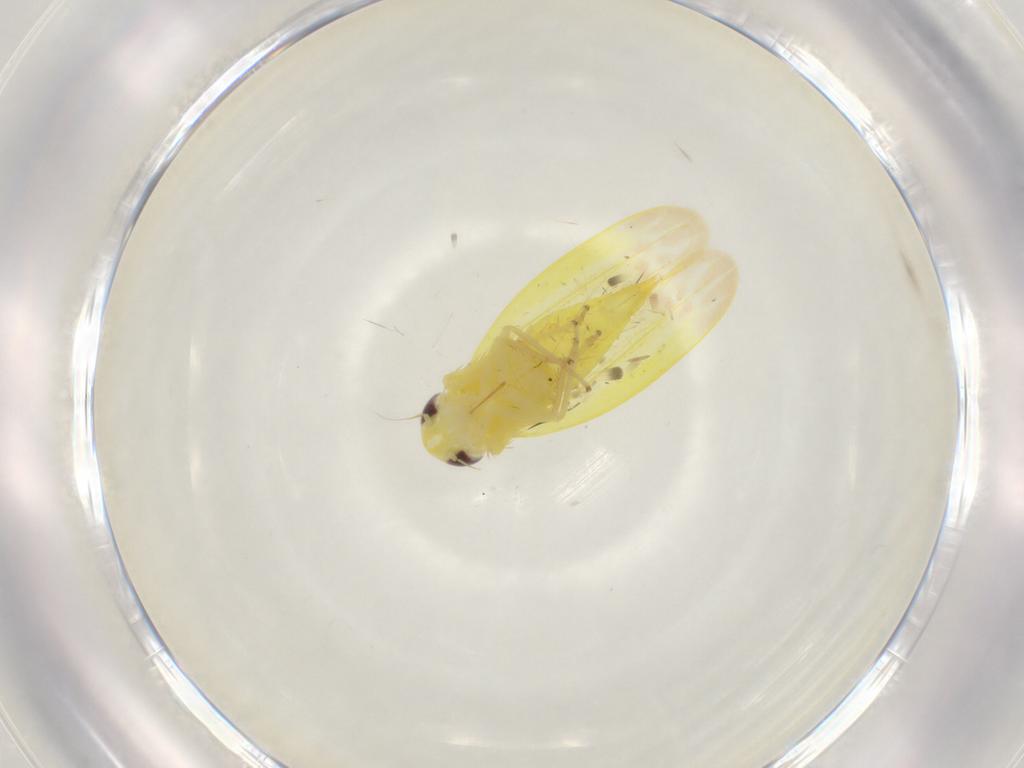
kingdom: Animalia
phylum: Arthropoda
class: Insecta
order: Hemiptera
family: Cicadellidae
